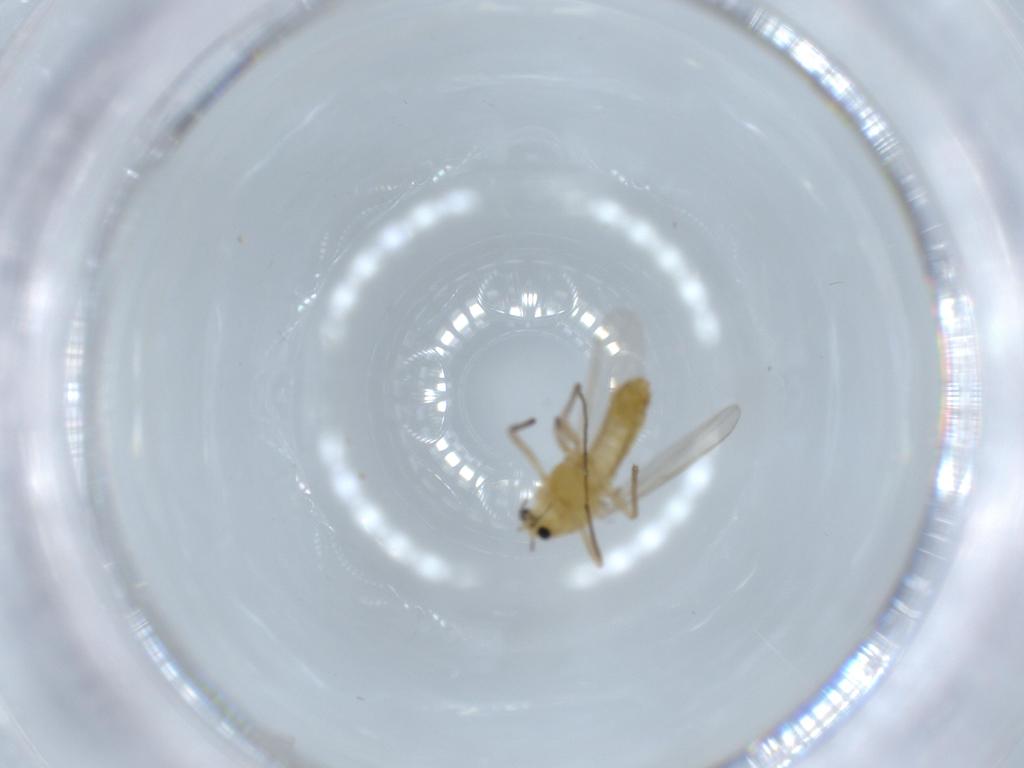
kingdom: Animalia
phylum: Arthropoda
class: Insecta
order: Diptera
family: Chironomidae
